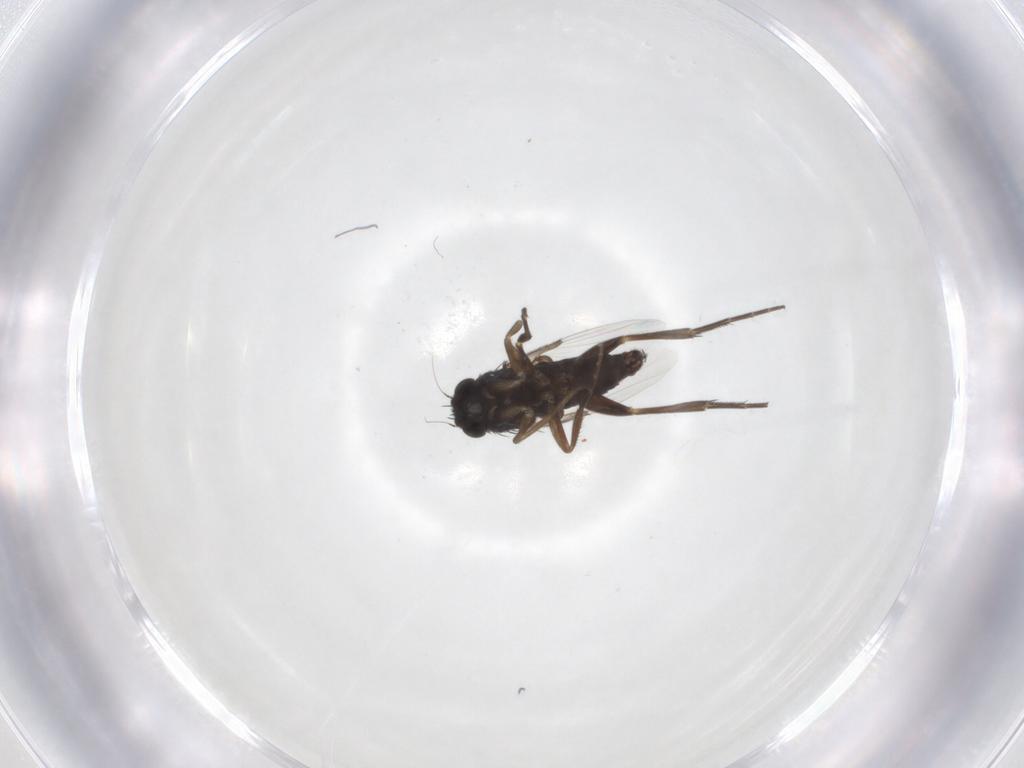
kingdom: Animalia
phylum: Arthropoda
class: Insecta
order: Diptera
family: Phoridae
